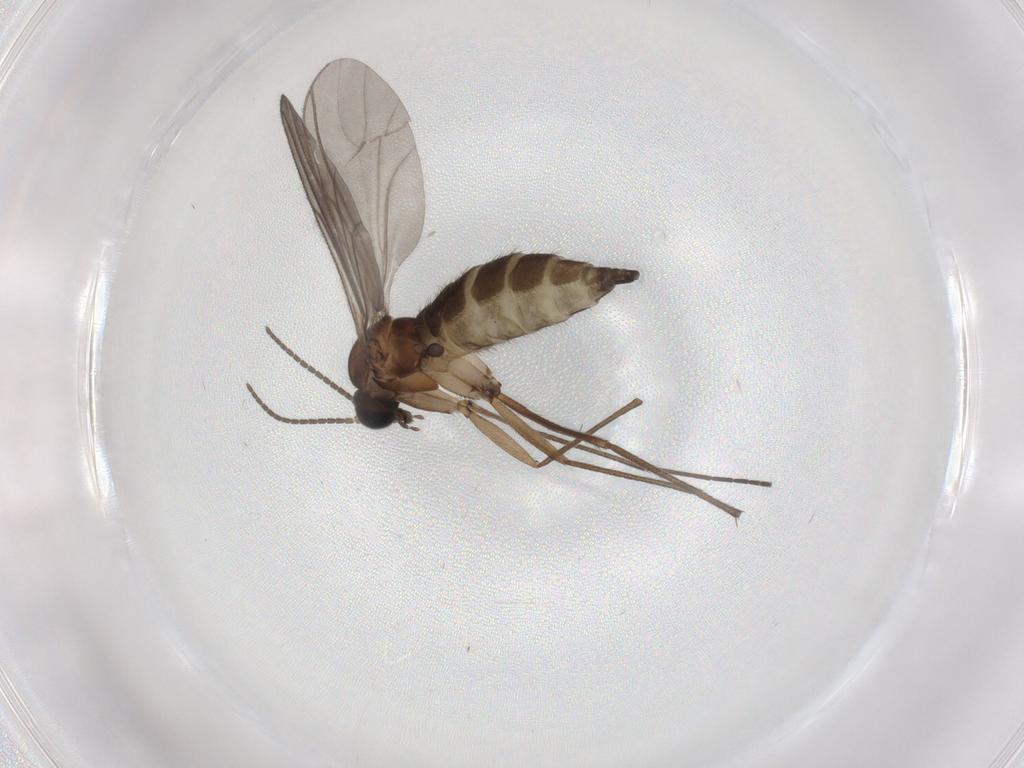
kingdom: Animalia
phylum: Arthropoda
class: Insecta
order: Diptera
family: Sciaridae
